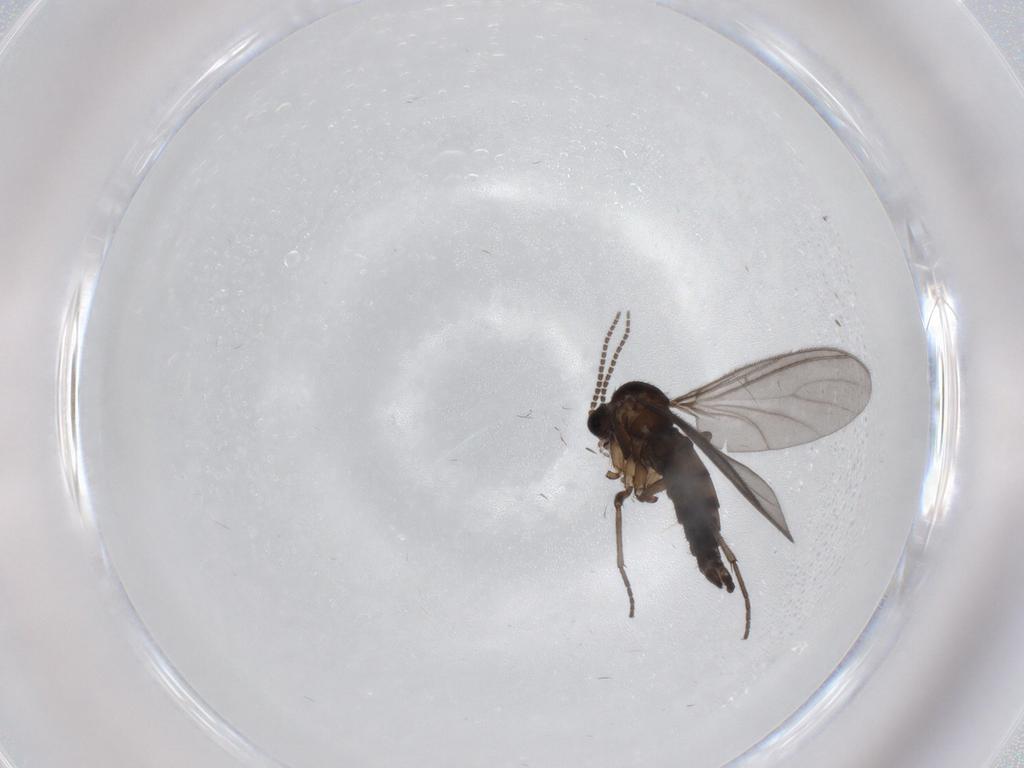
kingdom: Animalia
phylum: Arthropoda
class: Insecta
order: Diptera
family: Sciaridae
